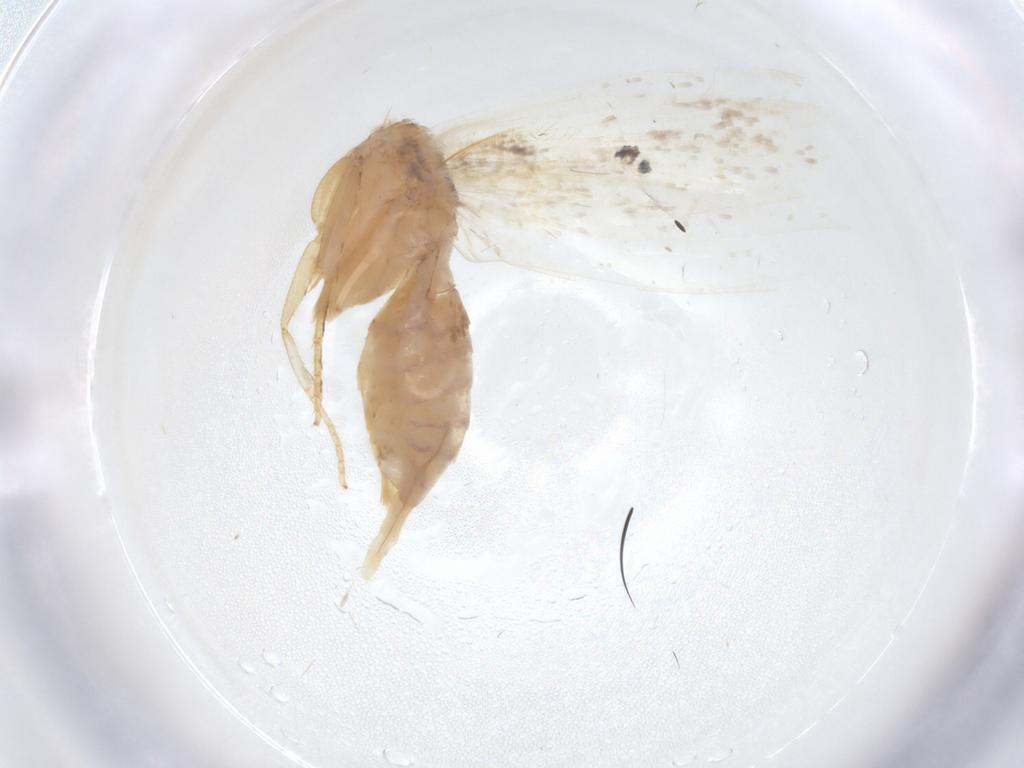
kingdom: Animalia
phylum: Arthropoda
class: Insecta
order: Lepidoptera
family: Gelechiidae
